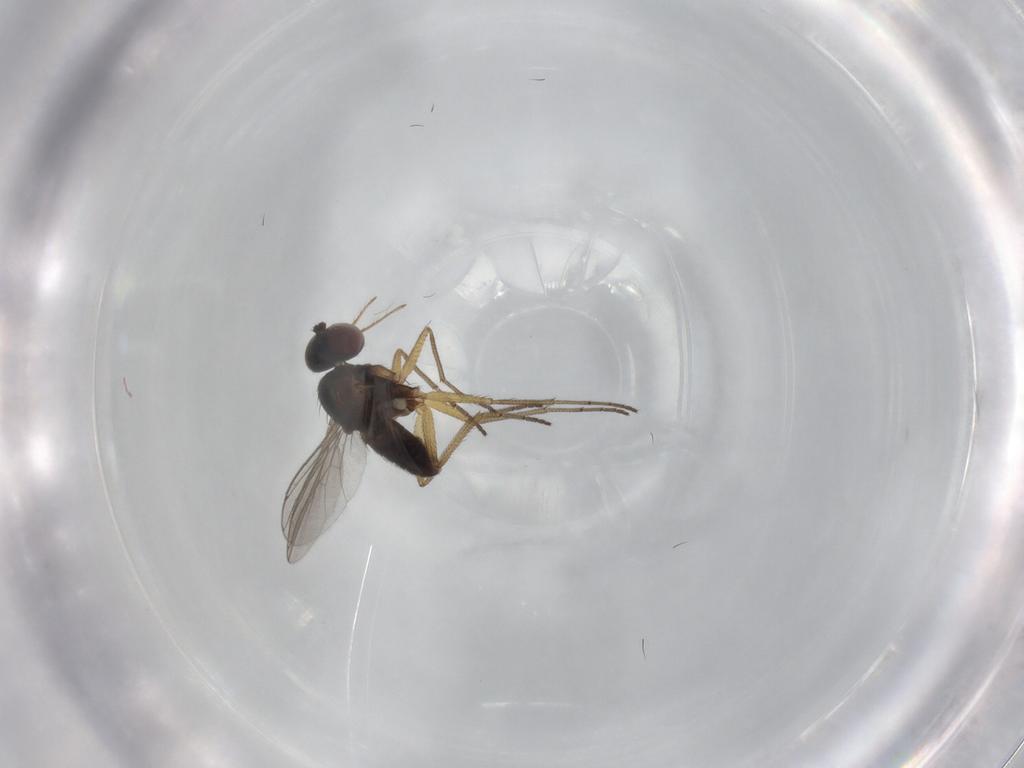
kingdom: Animalia
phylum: Arthropoda
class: Insecta
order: Diptera
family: Dolichopodidae
